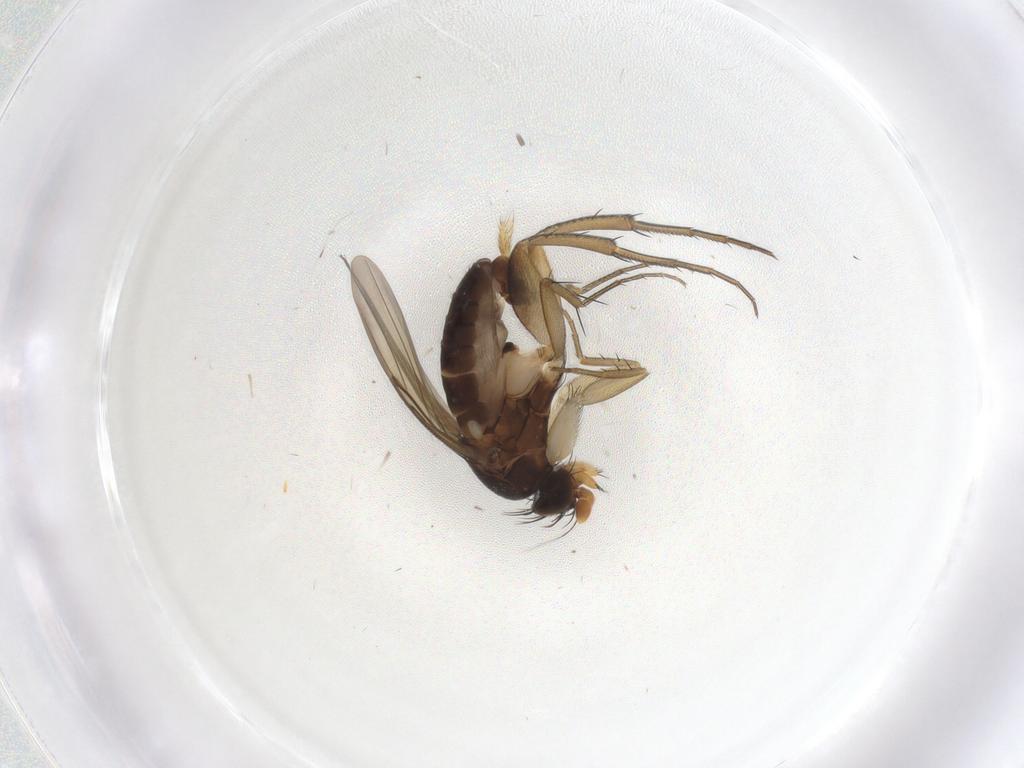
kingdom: Animalia
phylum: Arthropoda
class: Insecta
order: Diptera
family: Phoridae
